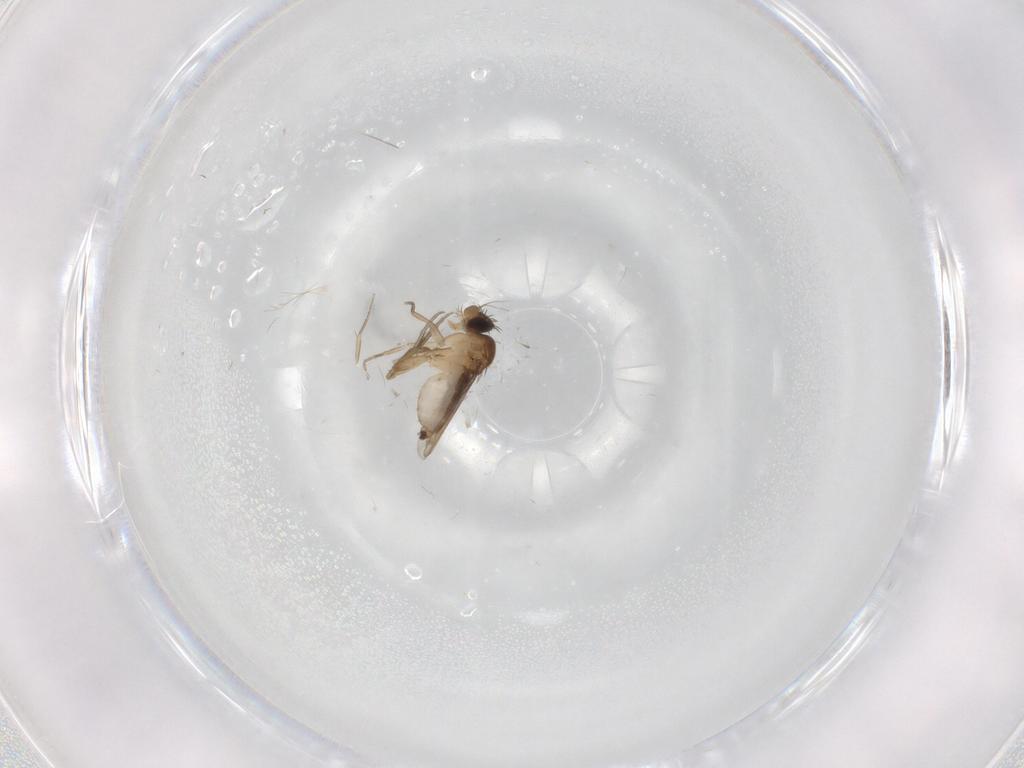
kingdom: Animalia
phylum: Arthropoda
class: Insecta
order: Diptera
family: Phoridae
